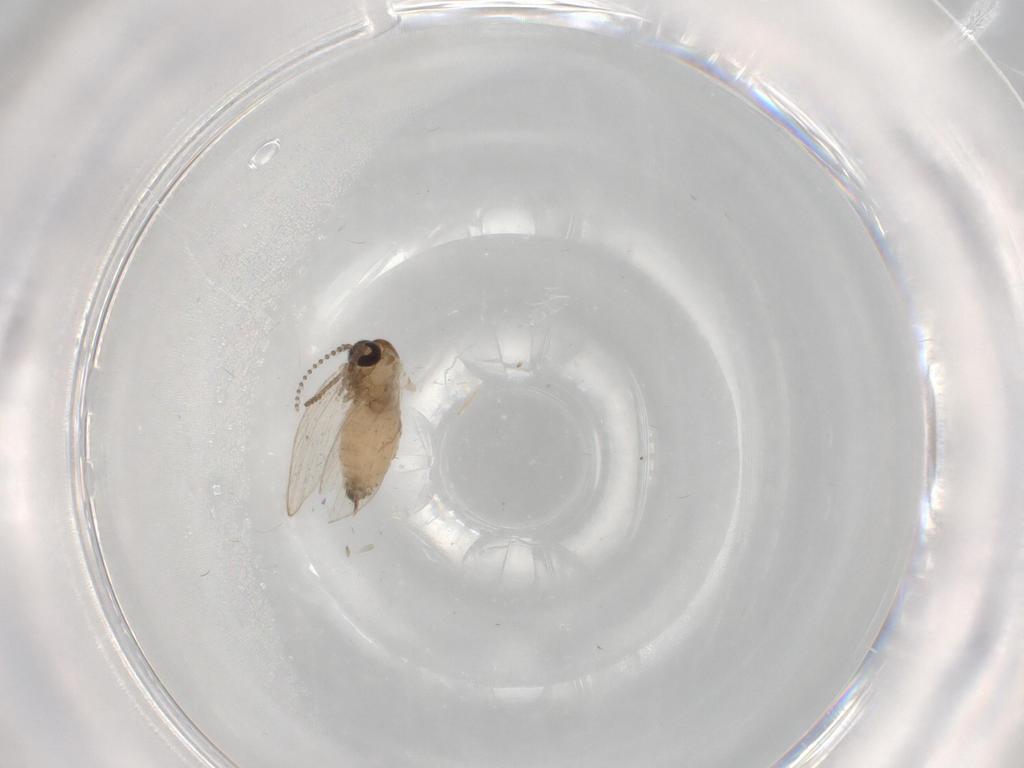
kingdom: Animalia
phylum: Arthropoda
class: Insecta
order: Diptera
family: Psychodidae
